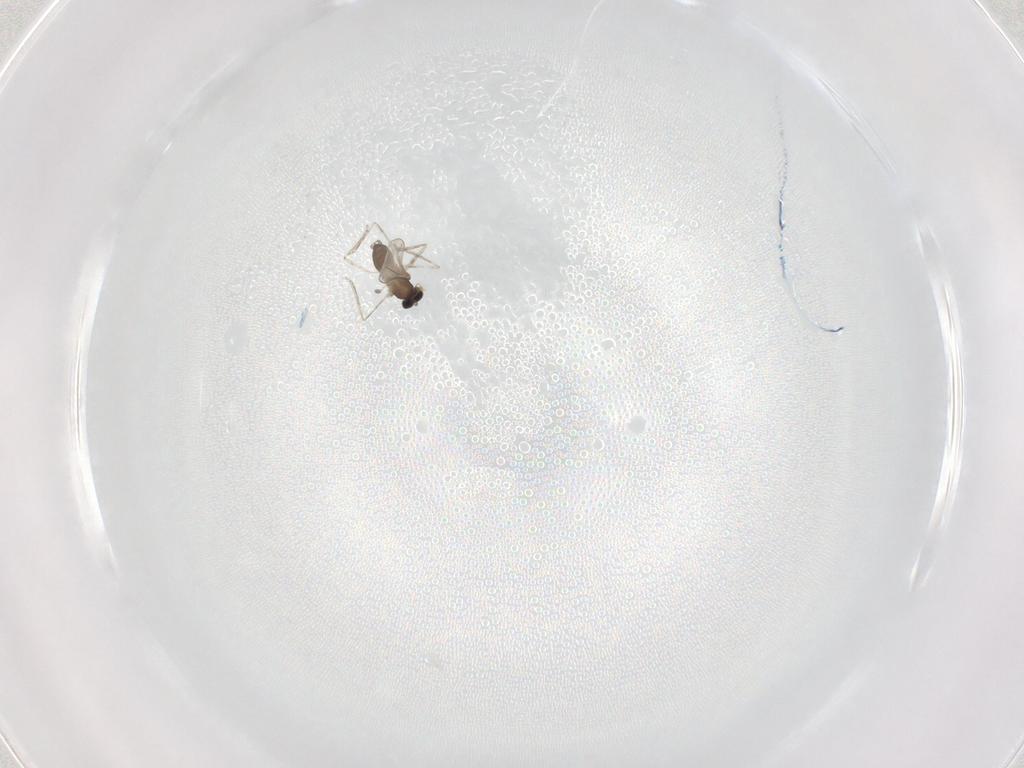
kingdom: Animalia
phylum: Arthropoda
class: Insecta
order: Diptera
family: Cecidomyiidae
